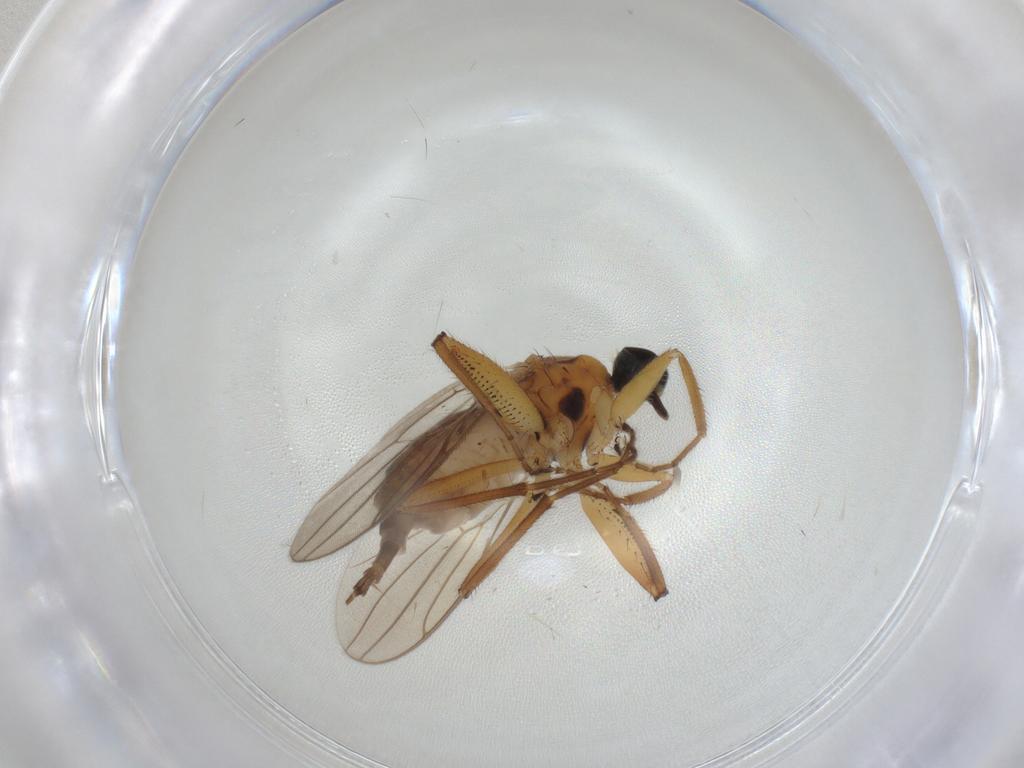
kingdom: Animalia
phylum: Arthropoda
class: Insecta
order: Diptera
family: Hybotidae
